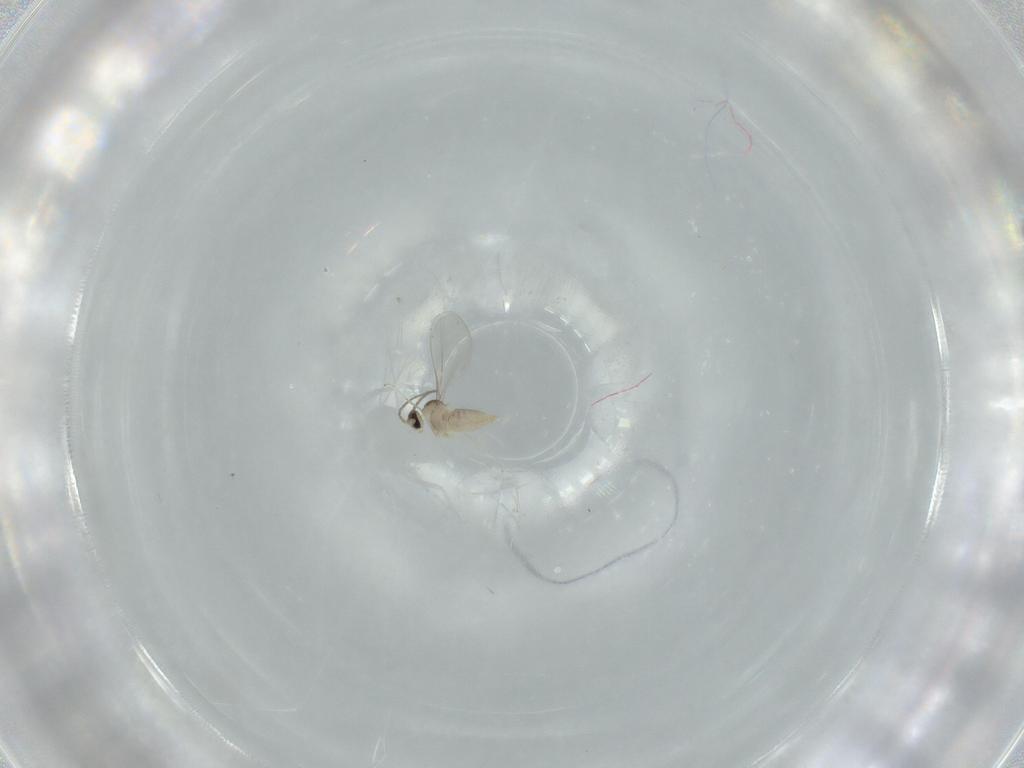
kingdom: Animalia
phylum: Arthropoda
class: Insecta
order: Diptera
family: Cecidomyiidae
